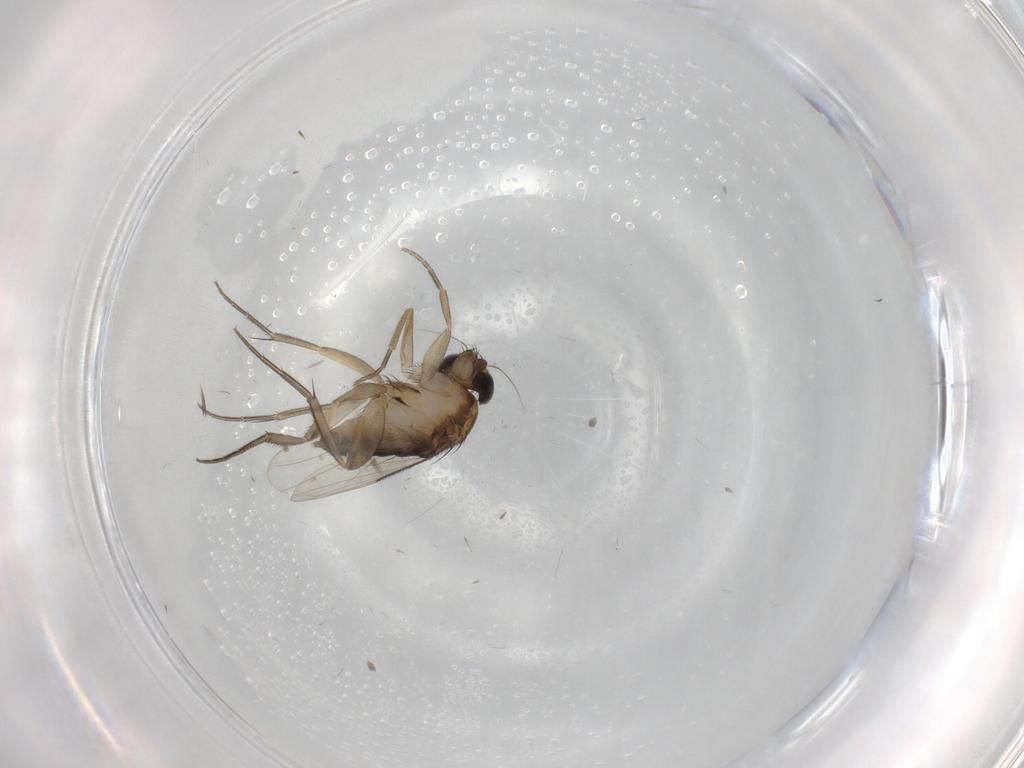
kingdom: Animalia
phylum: Arthropoda
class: Insecta
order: Diptera
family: Phoridae
